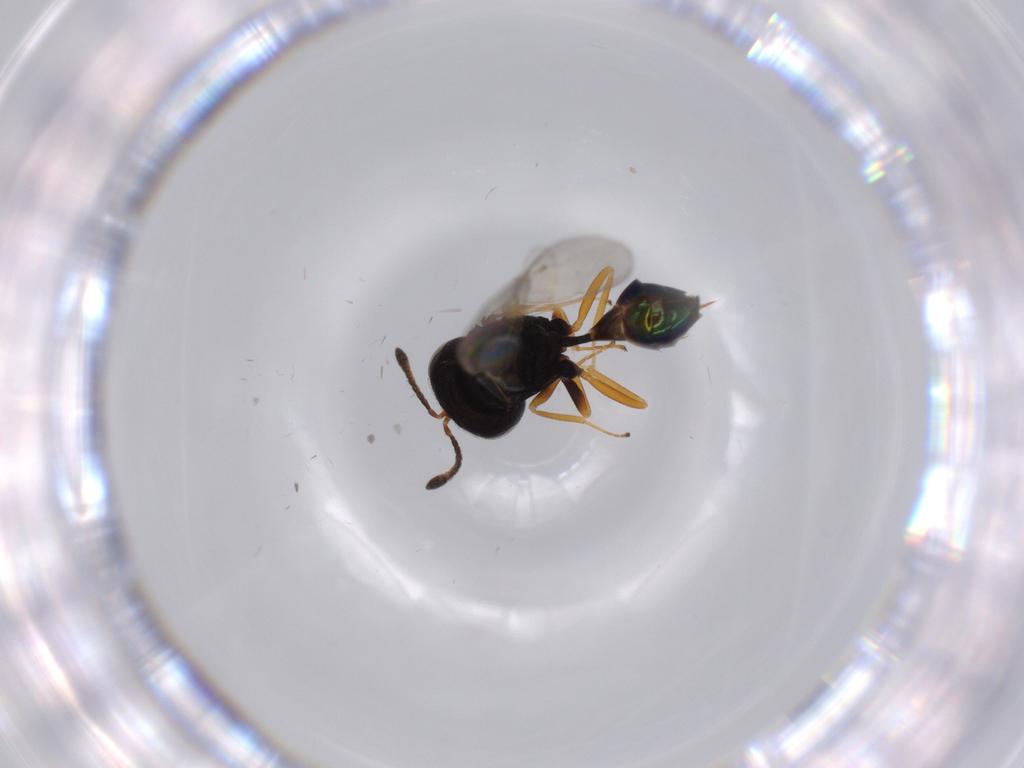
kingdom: Animalia
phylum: Arthropoda
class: Insecta
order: Hymenoptera
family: Pteromalidae
